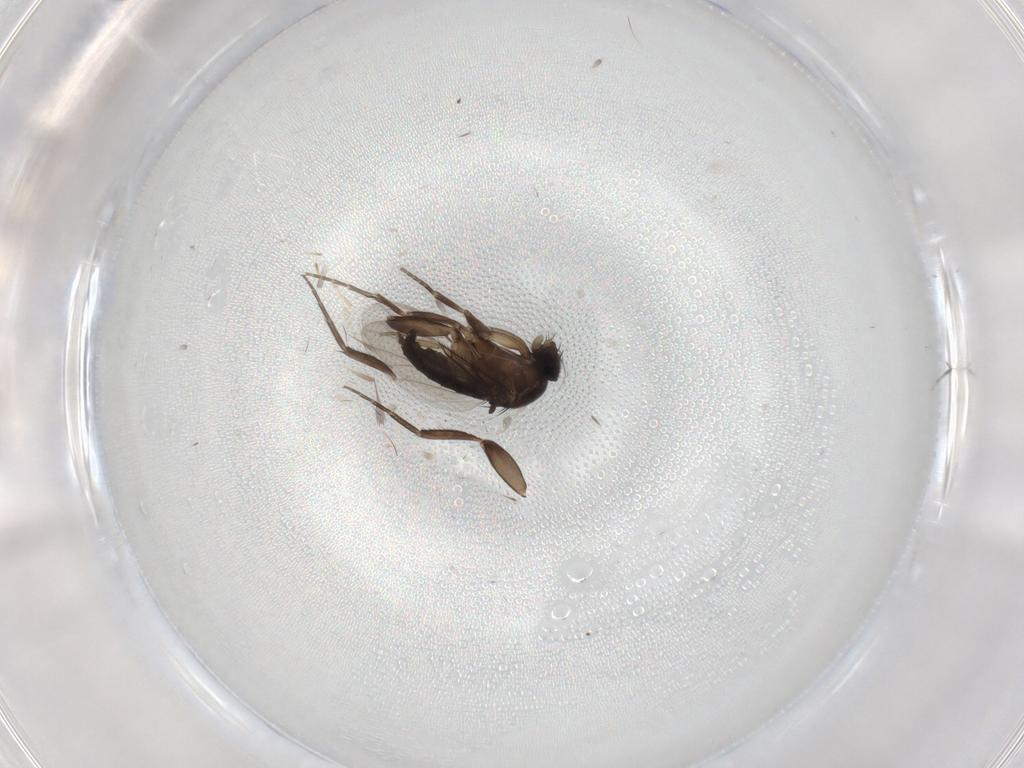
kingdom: Animalia
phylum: Arthropoda
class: Insecta
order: Diptera
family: Phoridae
